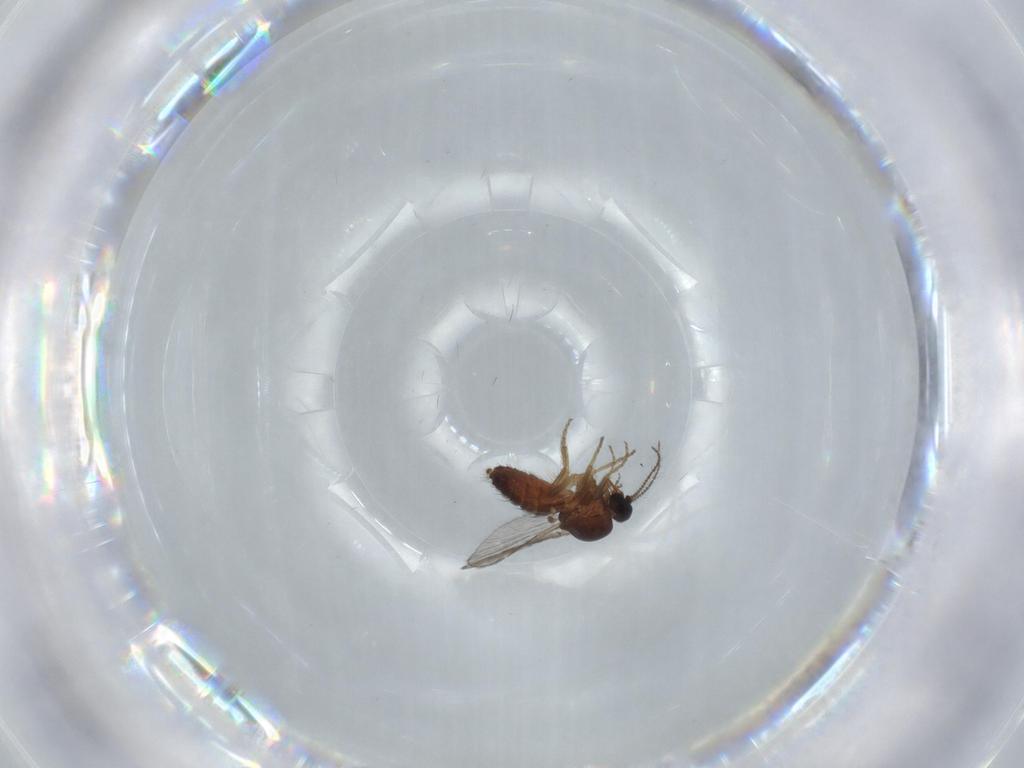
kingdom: Animalia
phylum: Arthropoda
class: Insecta
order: Diptera
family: Ceratopogonidae
